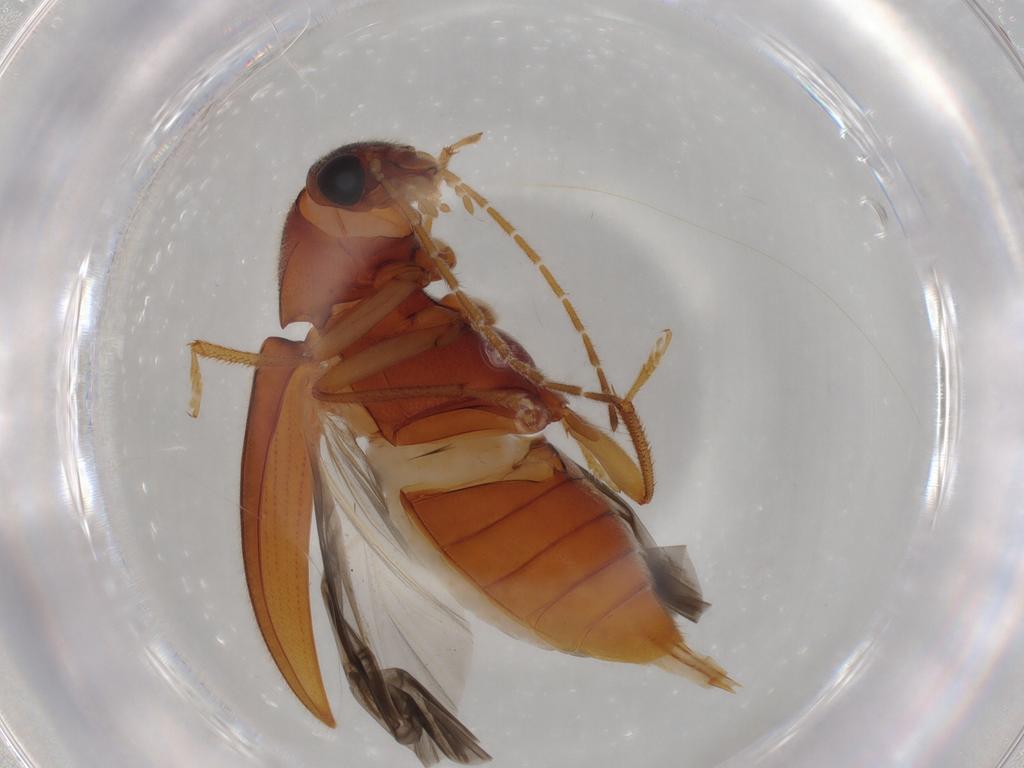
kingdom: Animalia
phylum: Arthropoda
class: Insecta
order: Coleoptera
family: Ptilodactylidae
